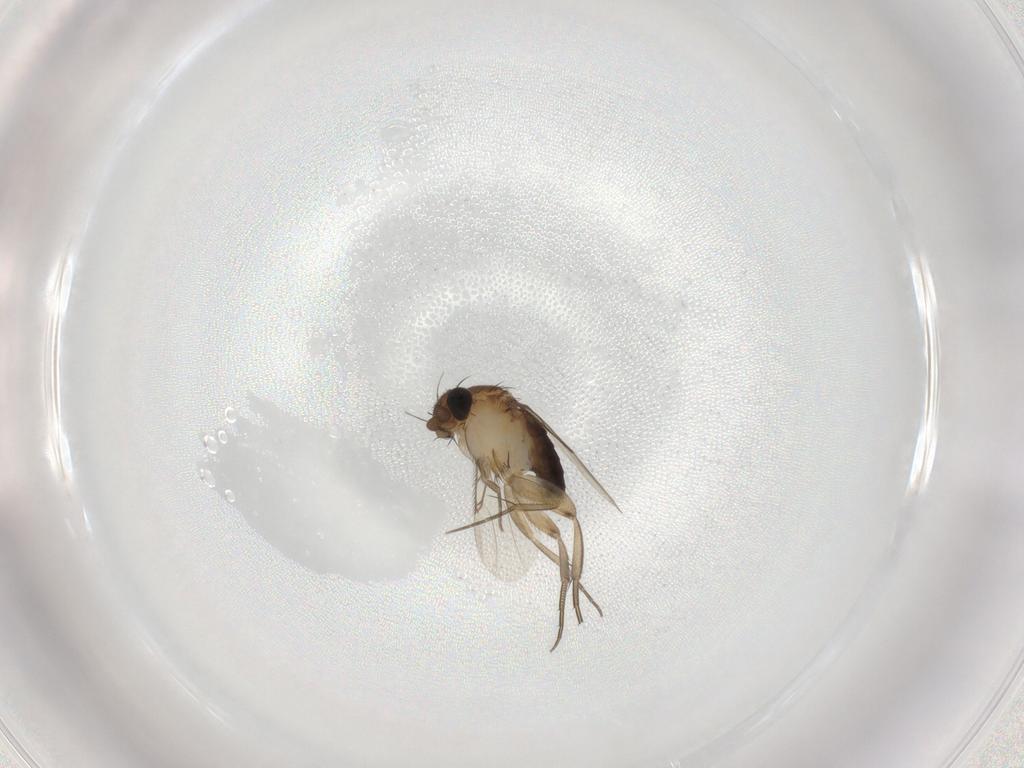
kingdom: Animalia
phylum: Arthropoda
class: Insecta
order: Diptera
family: Phoridae
